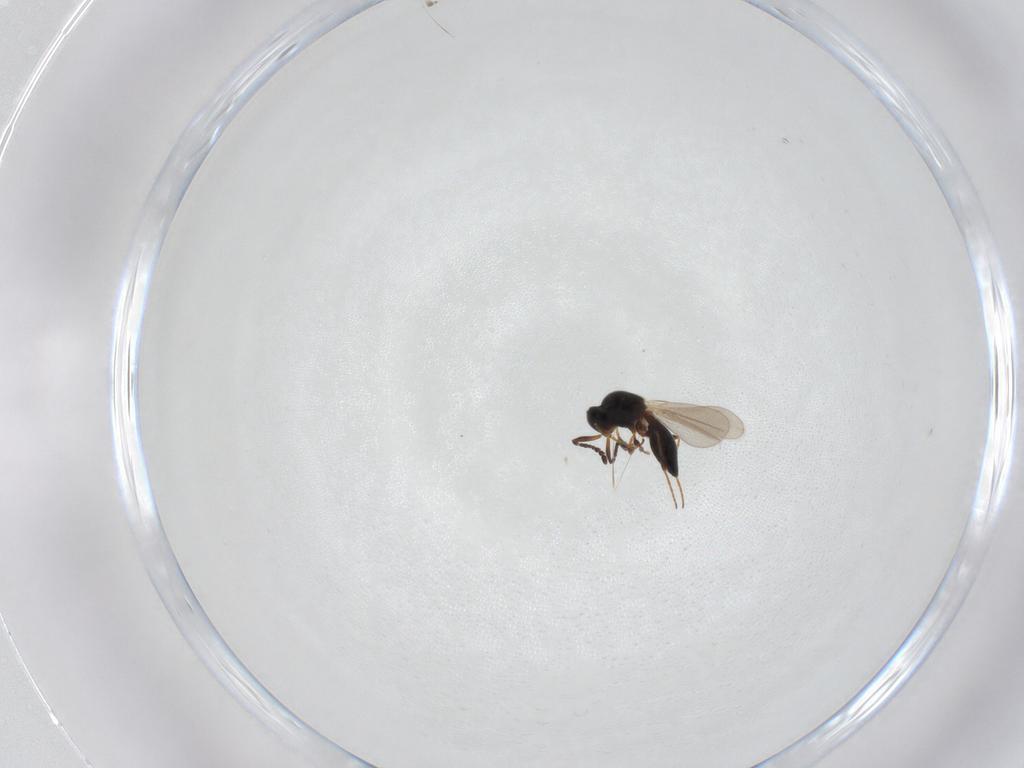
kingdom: Animalia
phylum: Arthropoda
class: Insecta
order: Hymenoptera
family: Platygastridae
